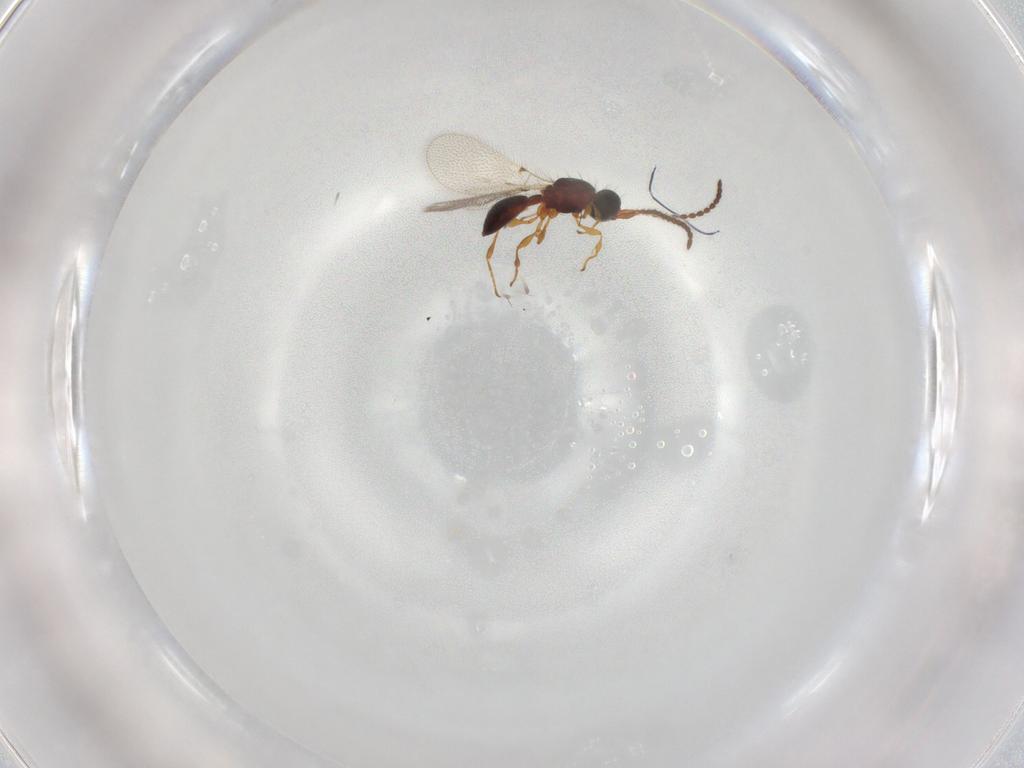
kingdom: Animalia
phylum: Arthropoda
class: Insecta
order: Hymenoptera
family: Diapriidae
